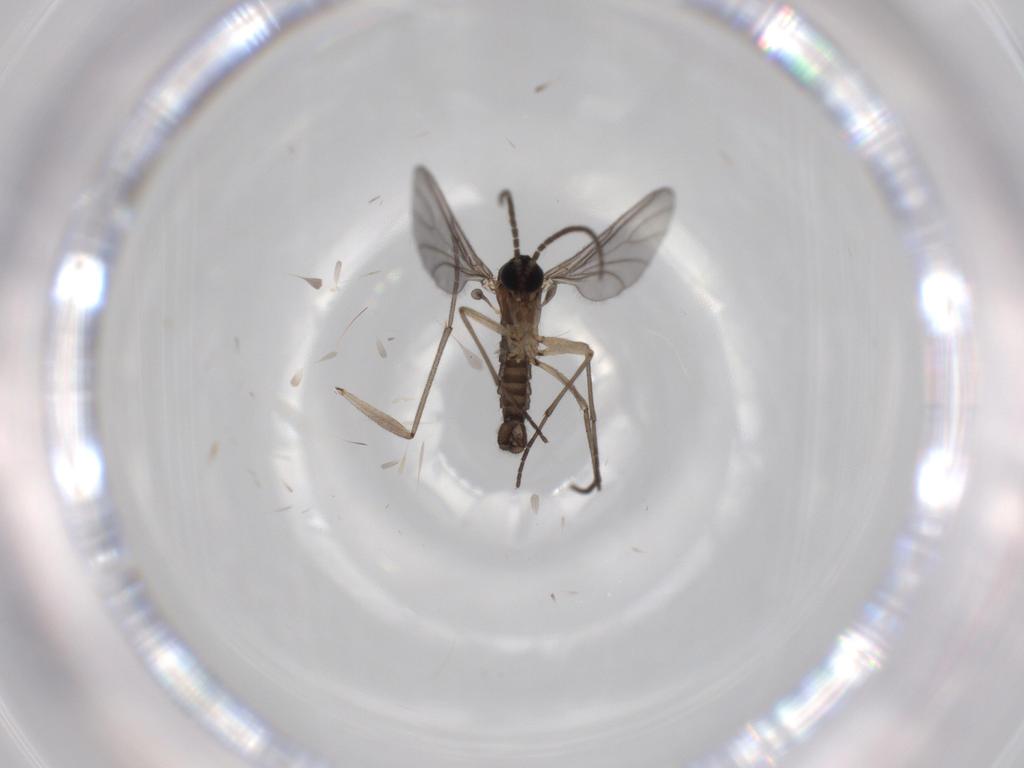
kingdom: Animalia
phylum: Arthropoda
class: Insecta
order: Diptera
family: Sciaridae
